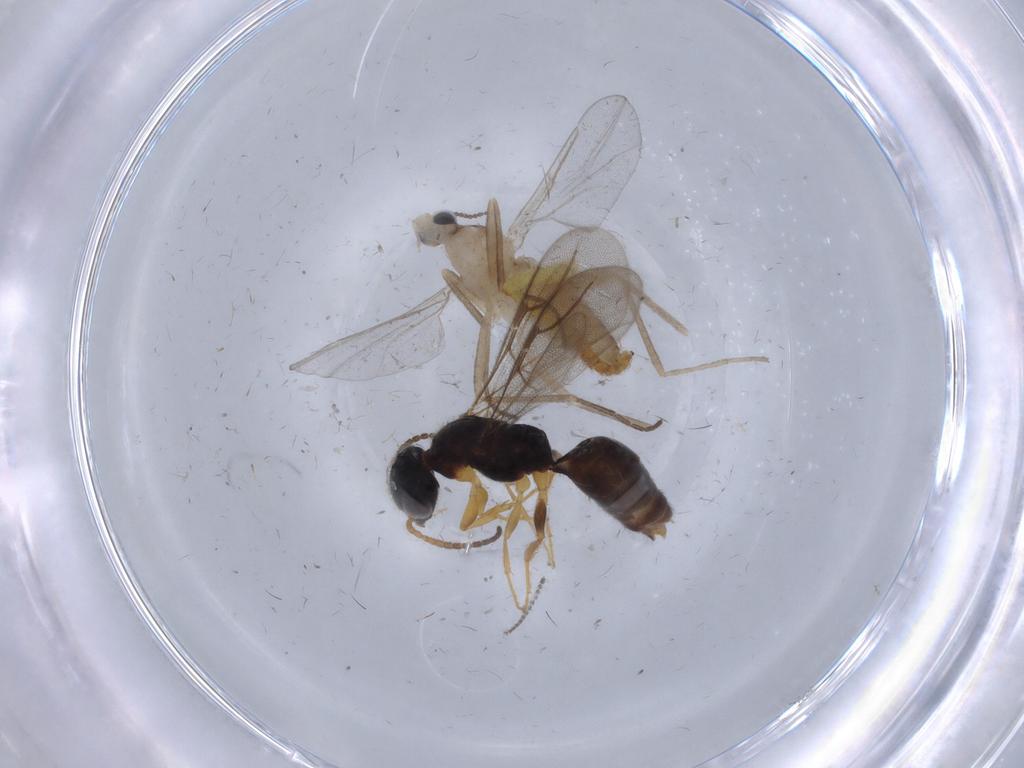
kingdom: Animalia
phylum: Arthropoda
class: Insecta
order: Diptera
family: Cecidomyiidae
